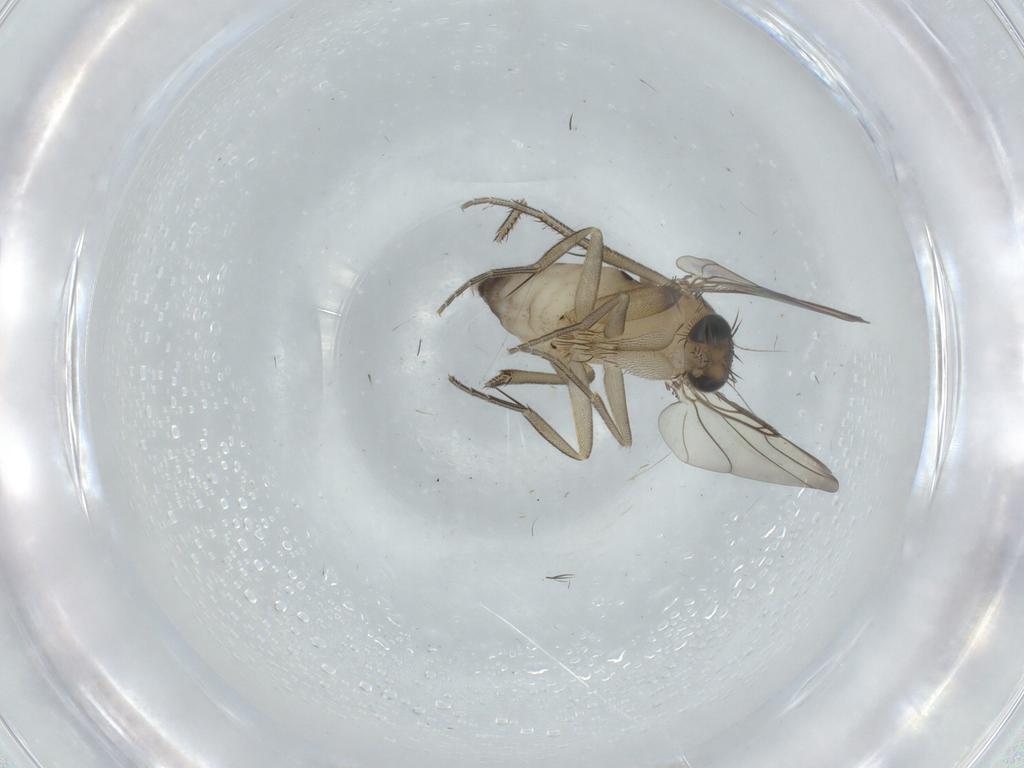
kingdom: Animalia
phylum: Arthropoda
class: Insecta
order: Diptera
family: Phoridae
